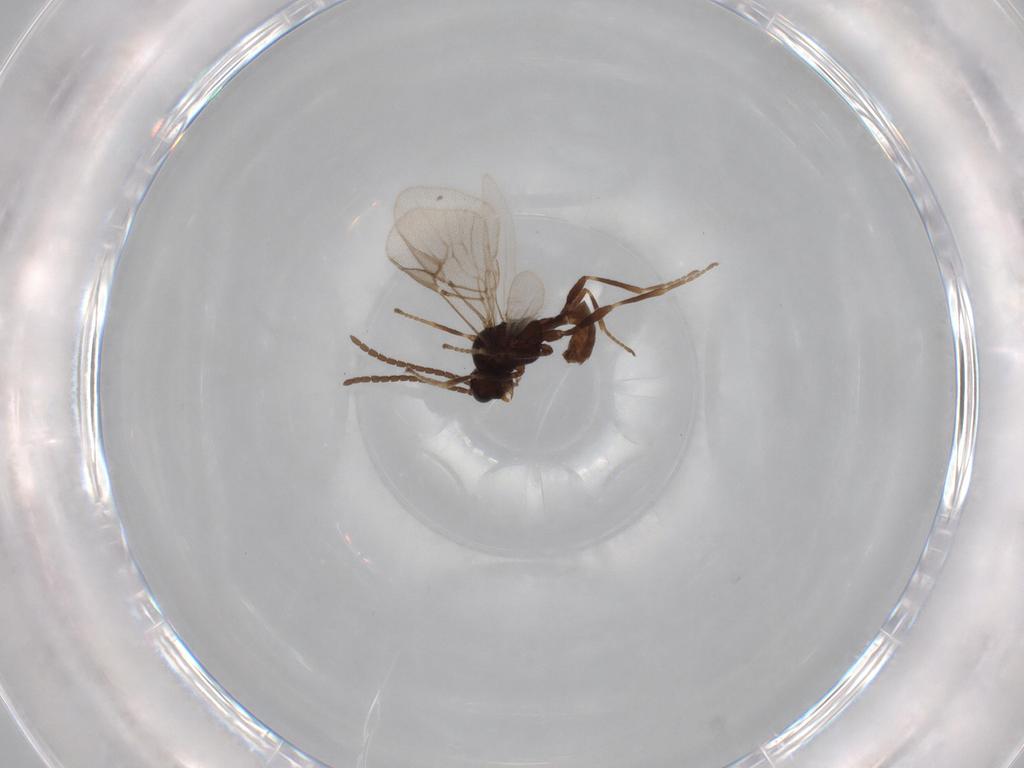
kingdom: Animalia
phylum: Arthropoda
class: Insecta
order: Hymenoptera
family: Braconidae
